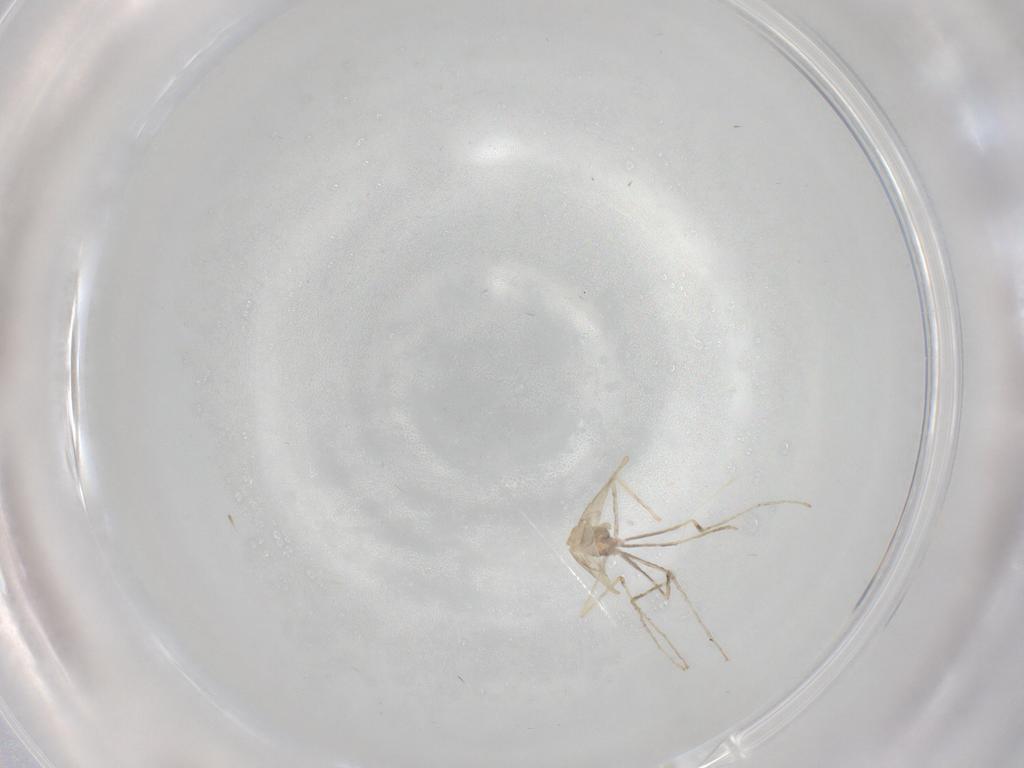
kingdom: Animalia
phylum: Arthropoda
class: Insecta
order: Diptera
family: Cecidomyiidae
